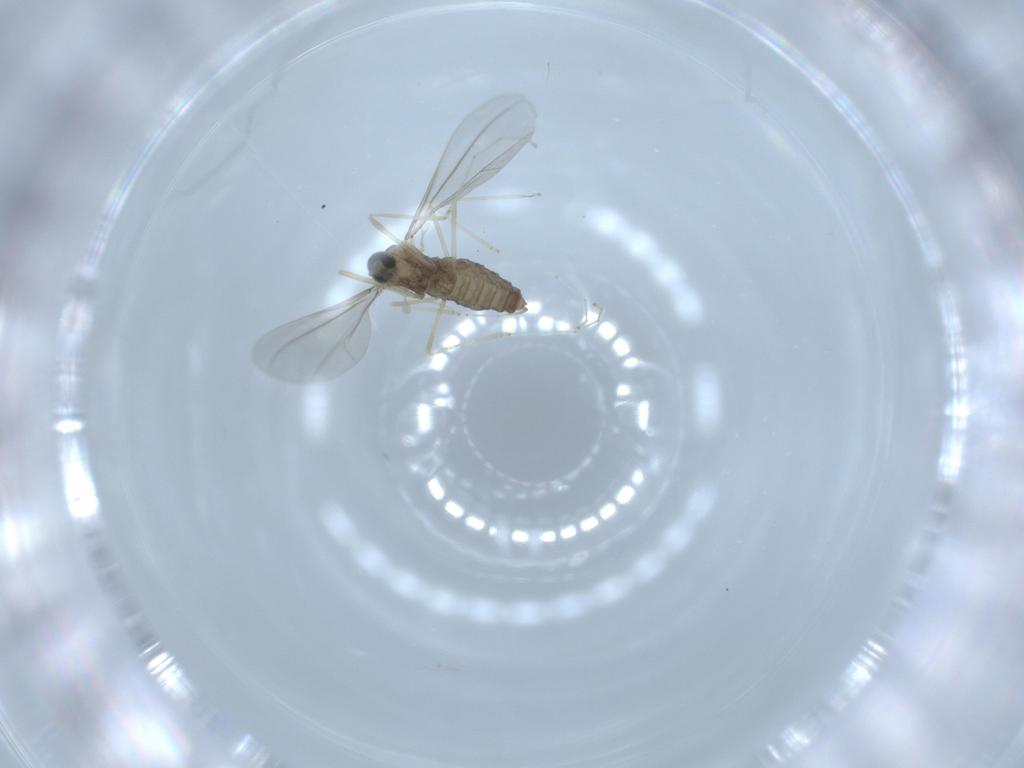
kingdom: Animalia
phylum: Arthropoda
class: Insecta
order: Diptera
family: Cecidomyiidae
